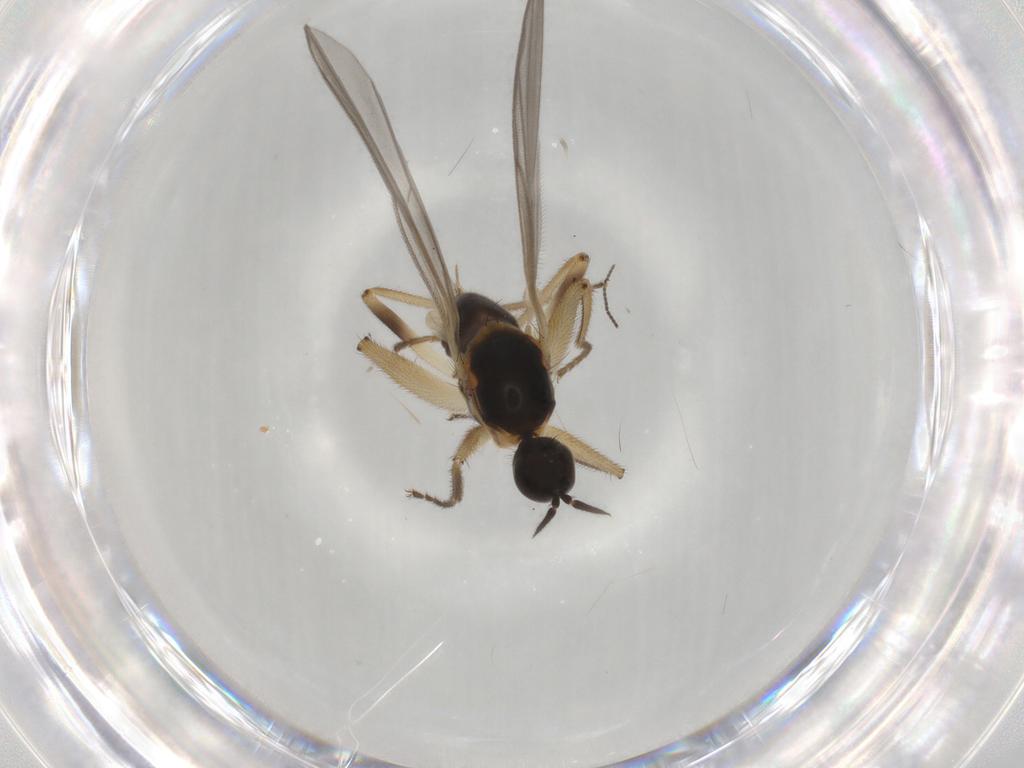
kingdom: Animalia
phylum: Arthropoda
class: Insecta
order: Diptera
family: Hybotidae
